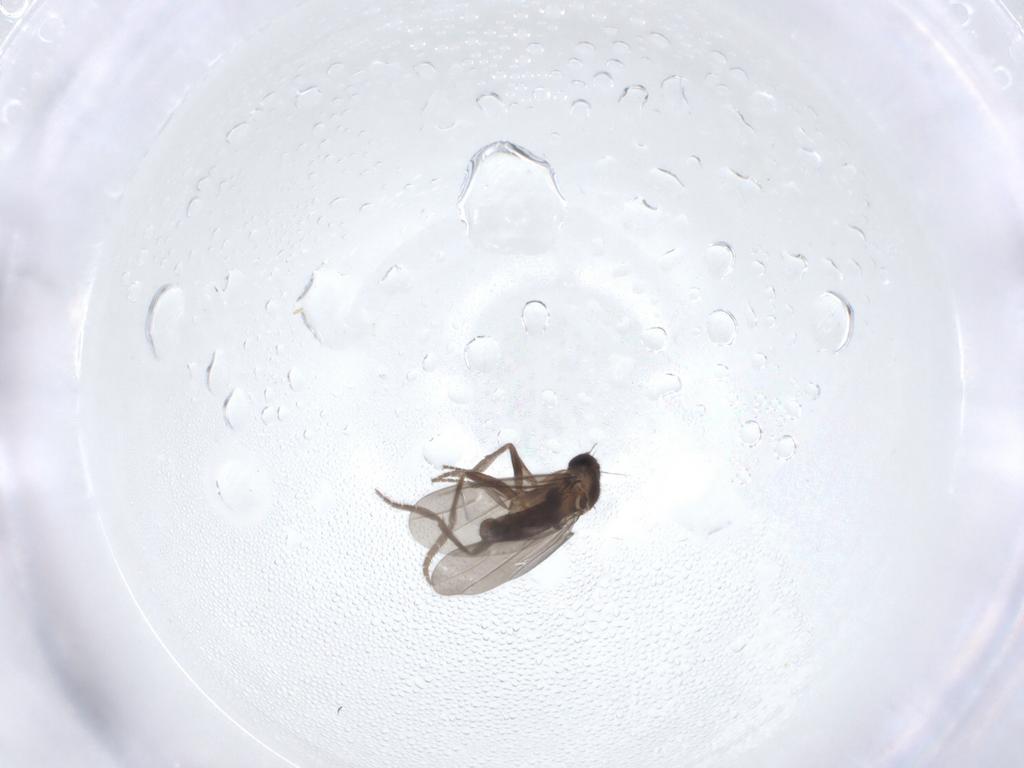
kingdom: Animalia
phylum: Arthropoda
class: Insecta
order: Diptera
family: Phoridae
